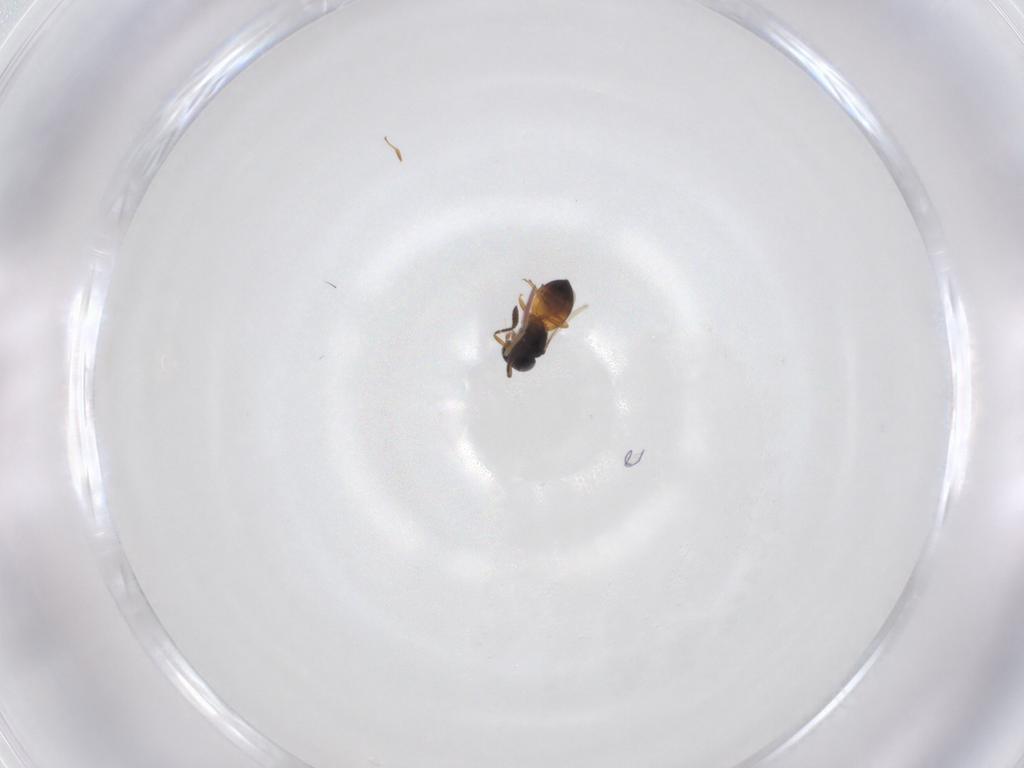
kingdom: Animalia
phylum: Arthropoda
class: Insecta
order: Hymenoptera
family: Scelionidae
